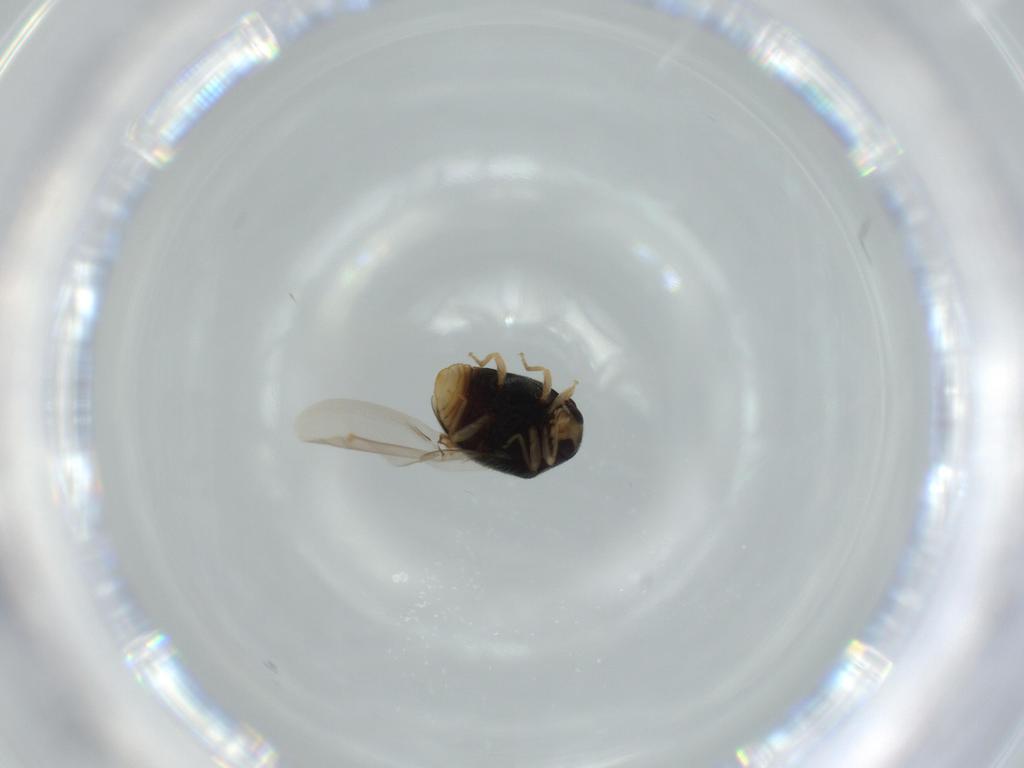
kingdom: Animalia
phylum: Arthropoda
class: Insecta
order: Coleoptera
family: Coccinellidae
